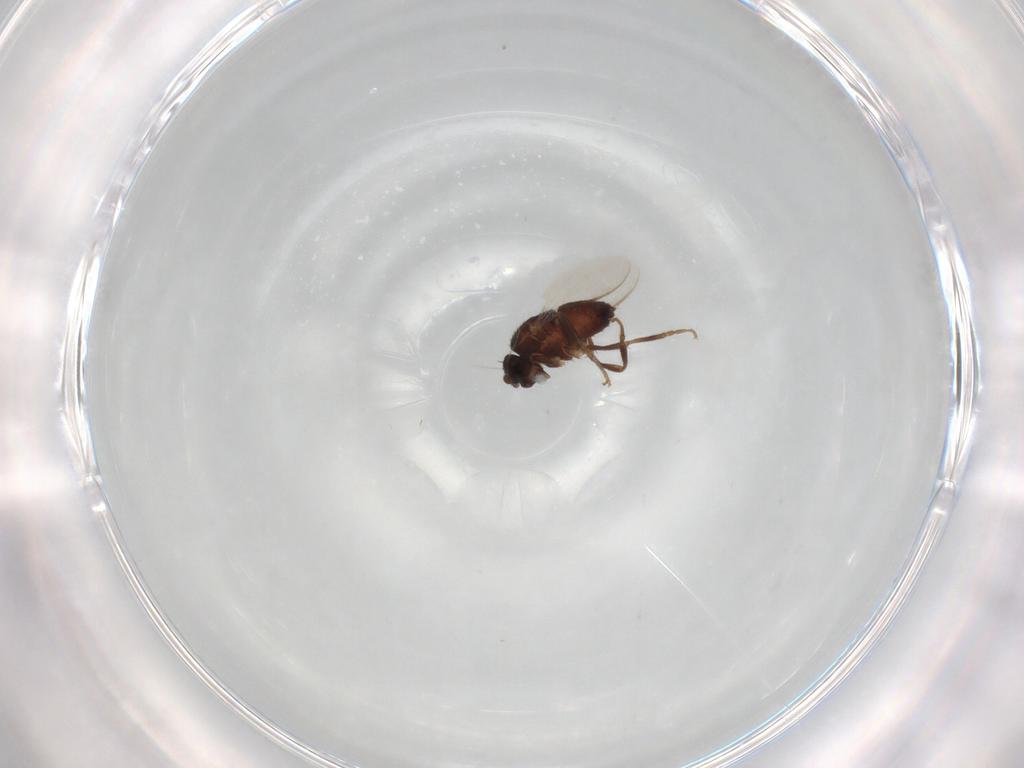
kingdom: Animalia
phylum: Arthropoda
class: Insecta
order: Diptera
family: Sphaeroceridae
